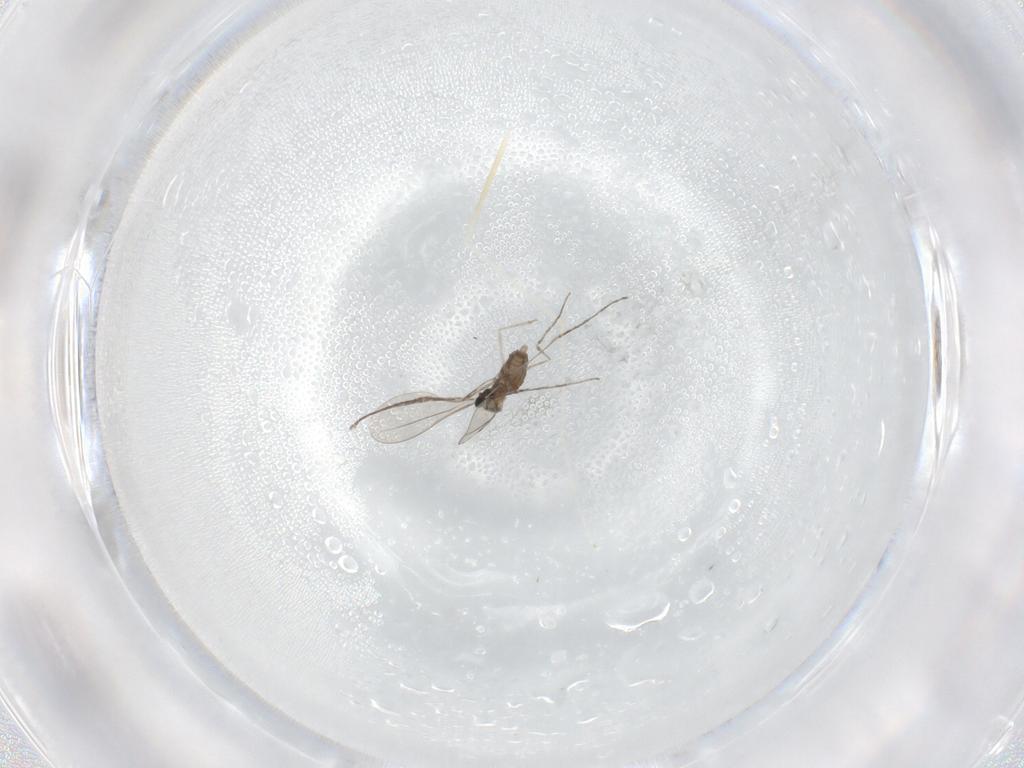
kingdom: Animalia
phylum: Arthropoda
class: Insecta
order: Diptera
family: Cecidomyiidae
